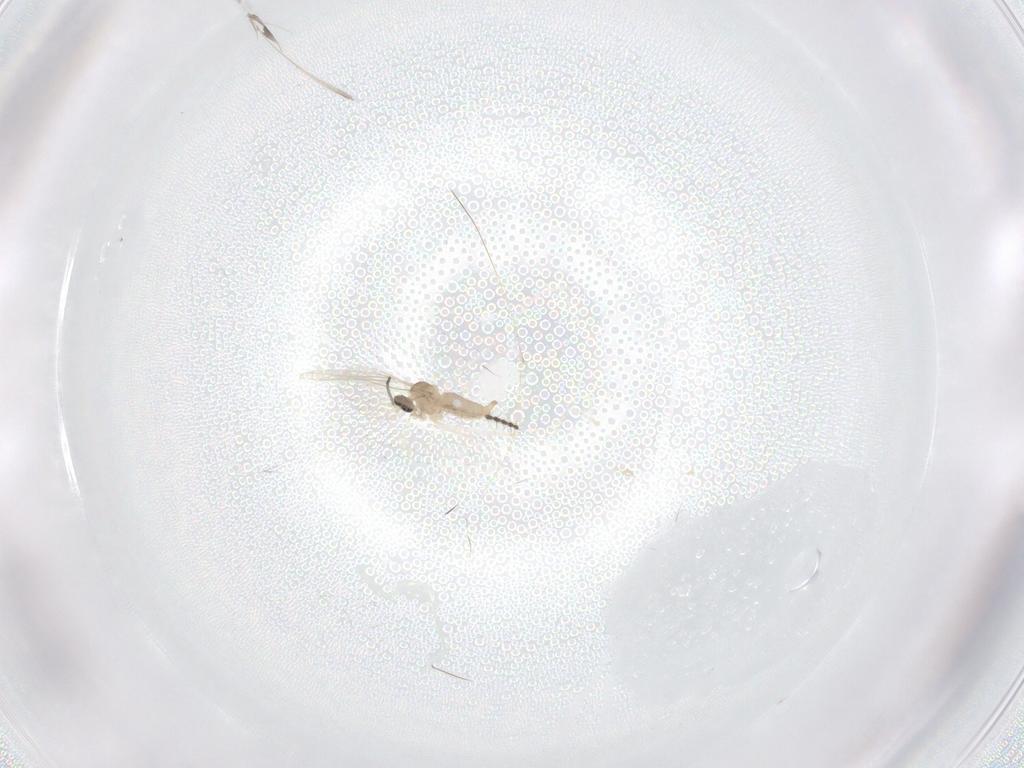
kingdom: Animalia
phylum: Arthropoda
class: Insecta
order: Diptera
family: Cecidomyiidae
